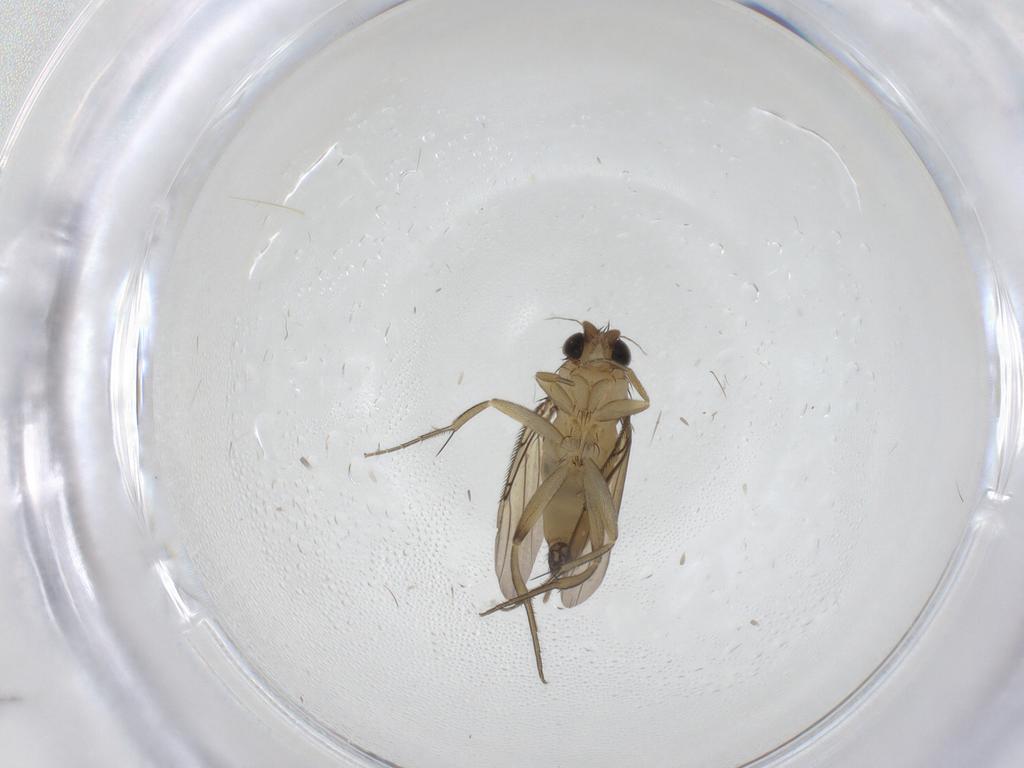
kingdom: Animalia
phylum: Arthropoda
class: Insecta
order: Diptera
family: Phoridae
